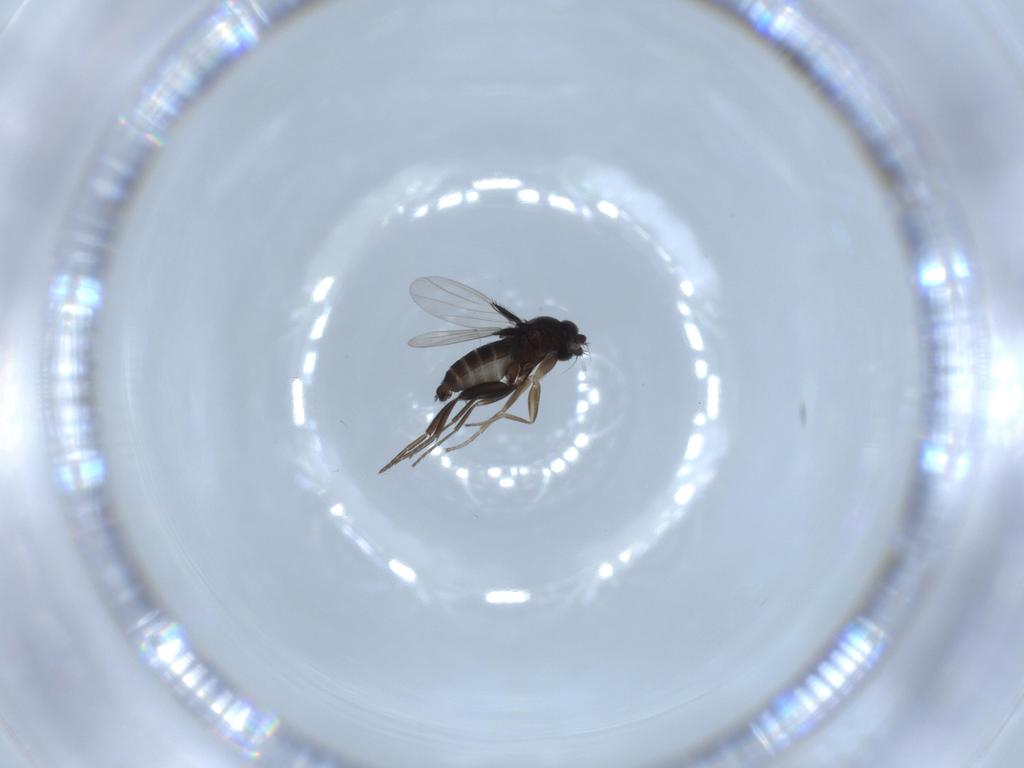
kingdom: Animalia
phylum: Arthropoda
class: Insecta
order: Diptera
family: Phoridae
